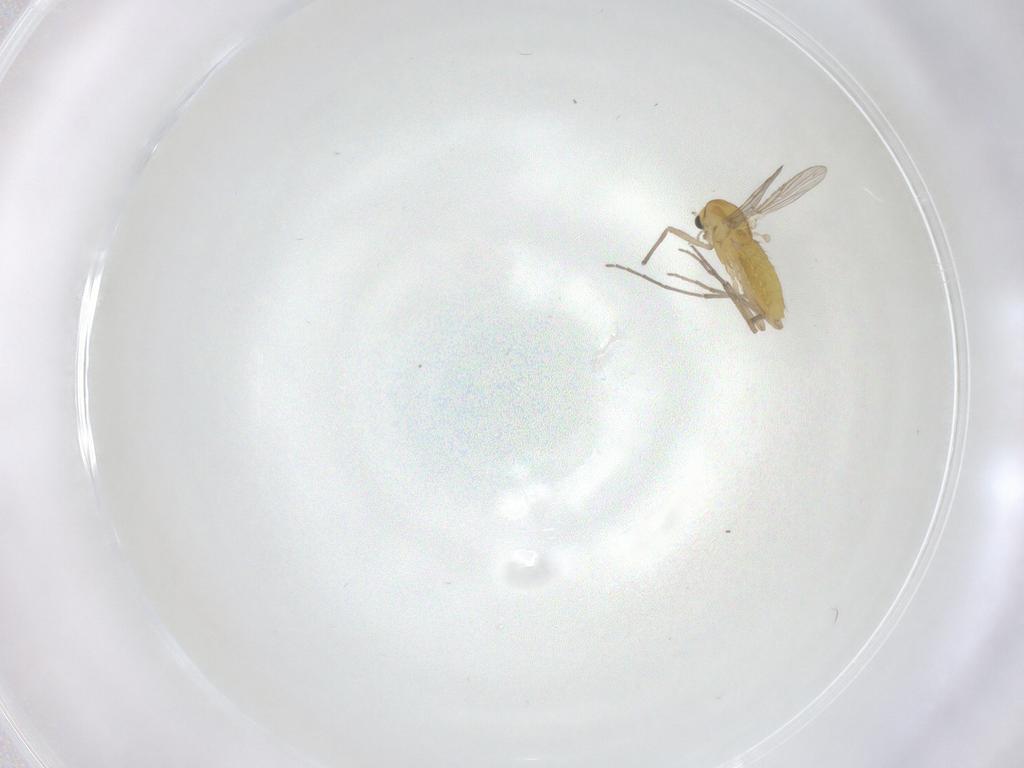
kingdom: Animalia
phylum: Arthropoda
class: Insecta
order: Diptera
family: Chironomidae
